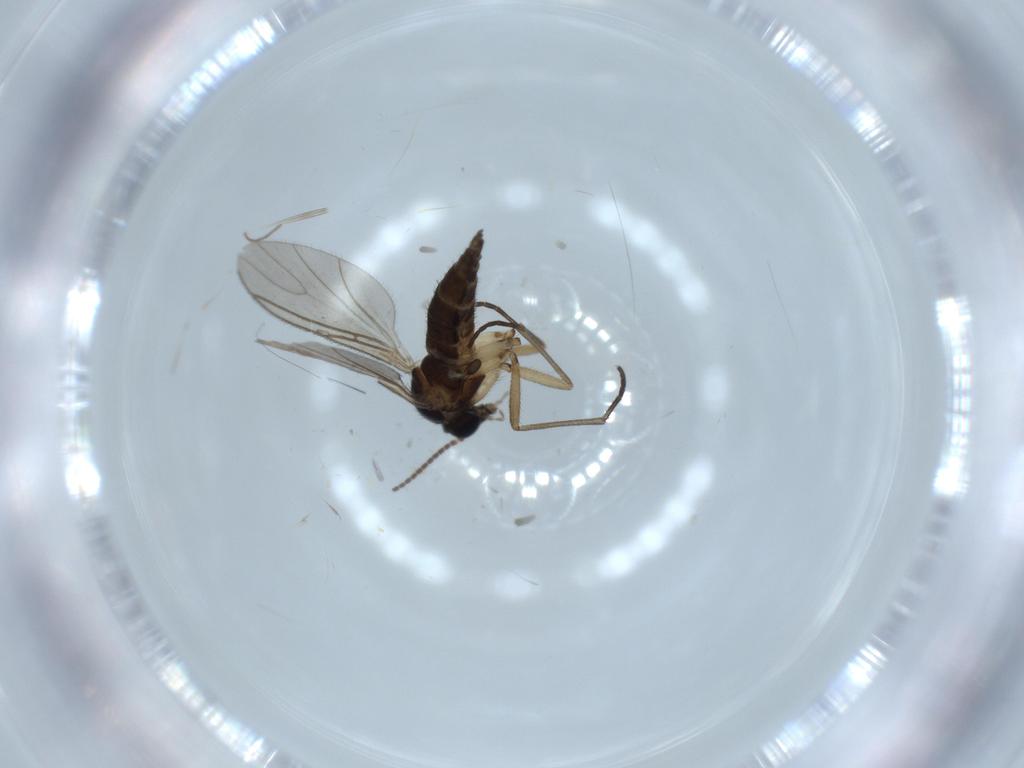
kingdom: Animalia
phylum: Arthropoda
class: Insecta
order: Diptera
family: Sciaridae
